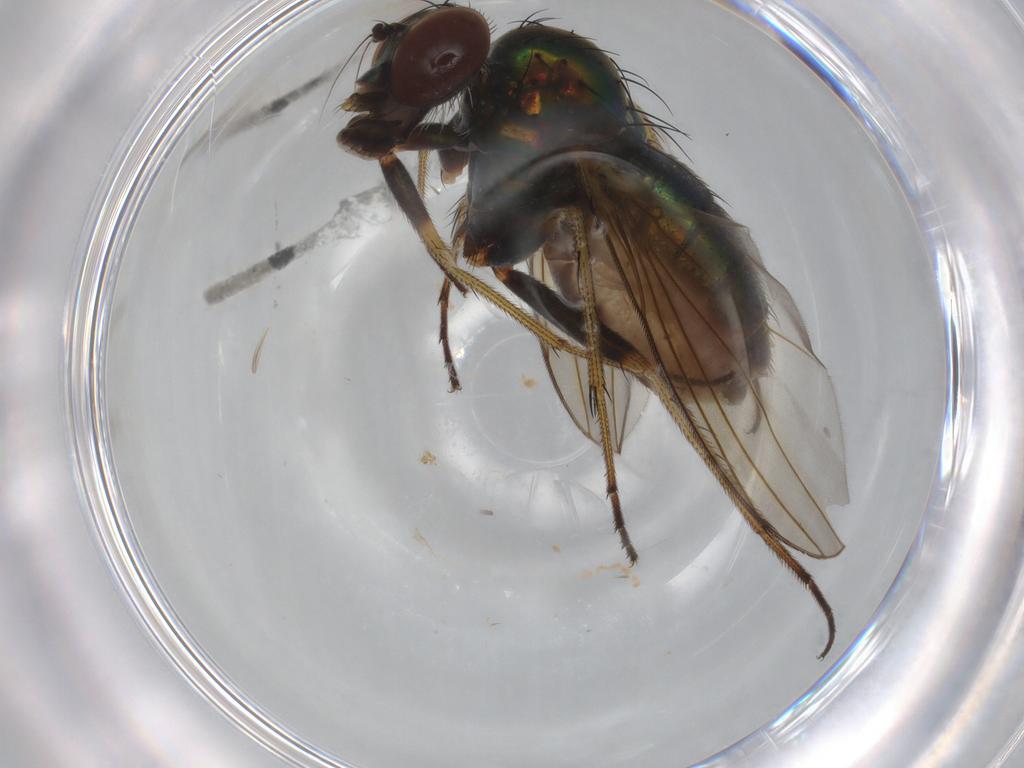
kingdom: Animalia
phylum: Arthropoda
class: Insecta
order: Diptera
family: Dolichopodidae
